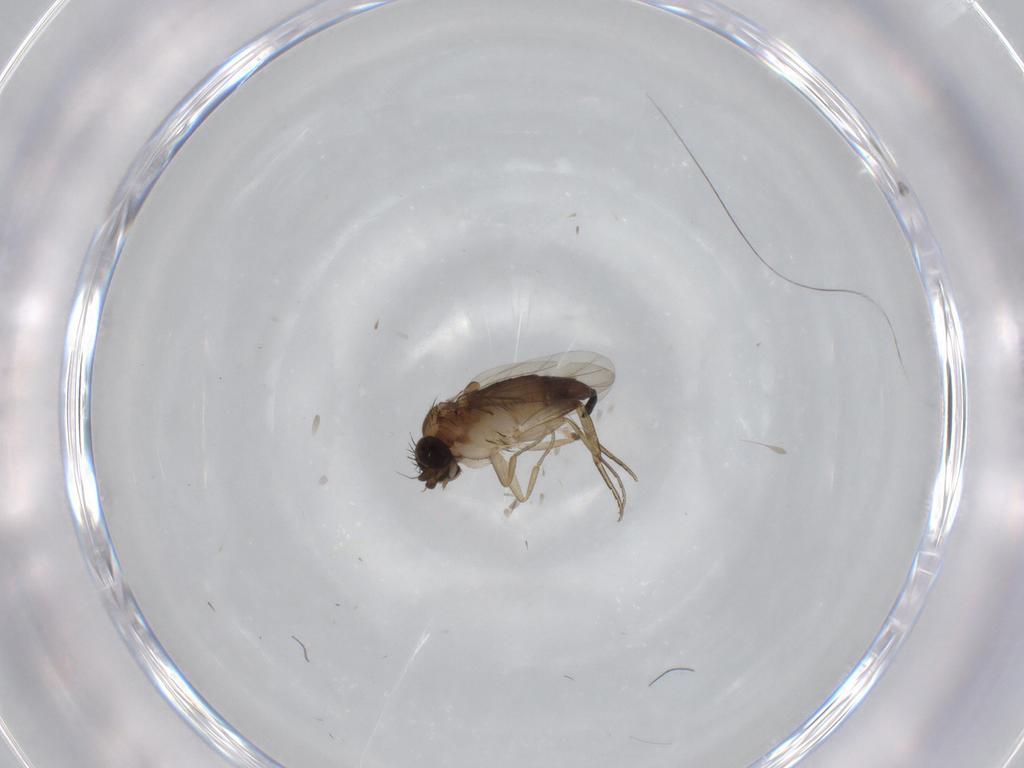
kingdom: Animalia
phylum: Arthropoda
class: Insecta
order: Diptera
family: Phoridae
